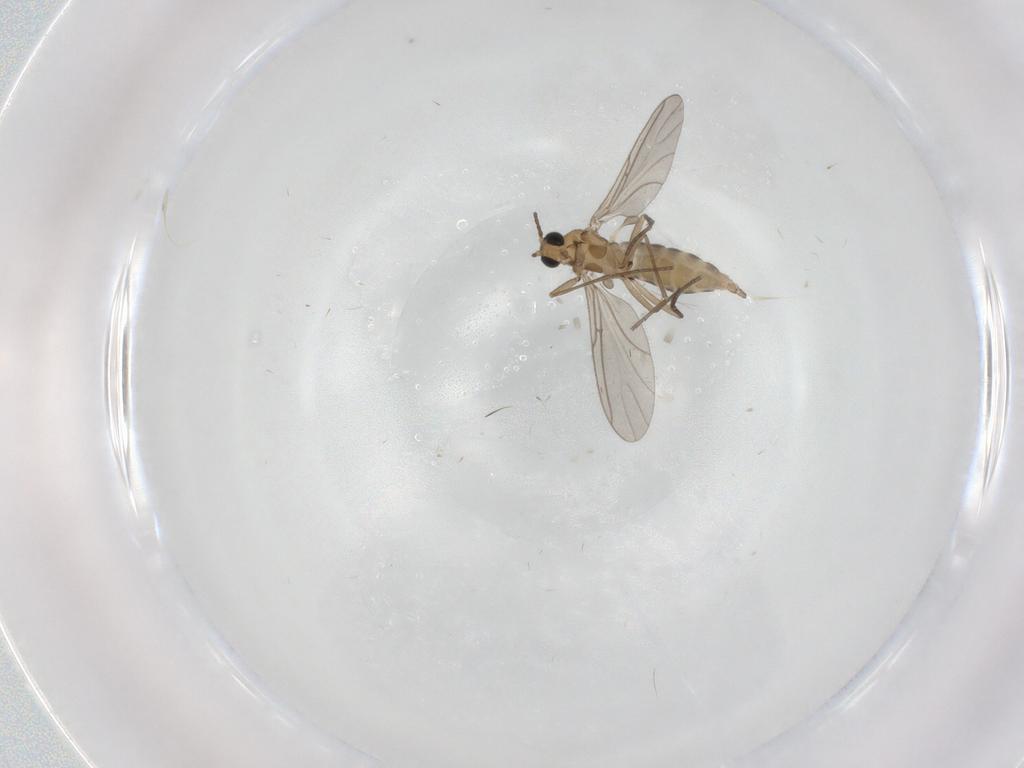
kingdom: Animalia
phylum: Arthropoda
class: Insecta
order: Diptera
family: Sciaridae
